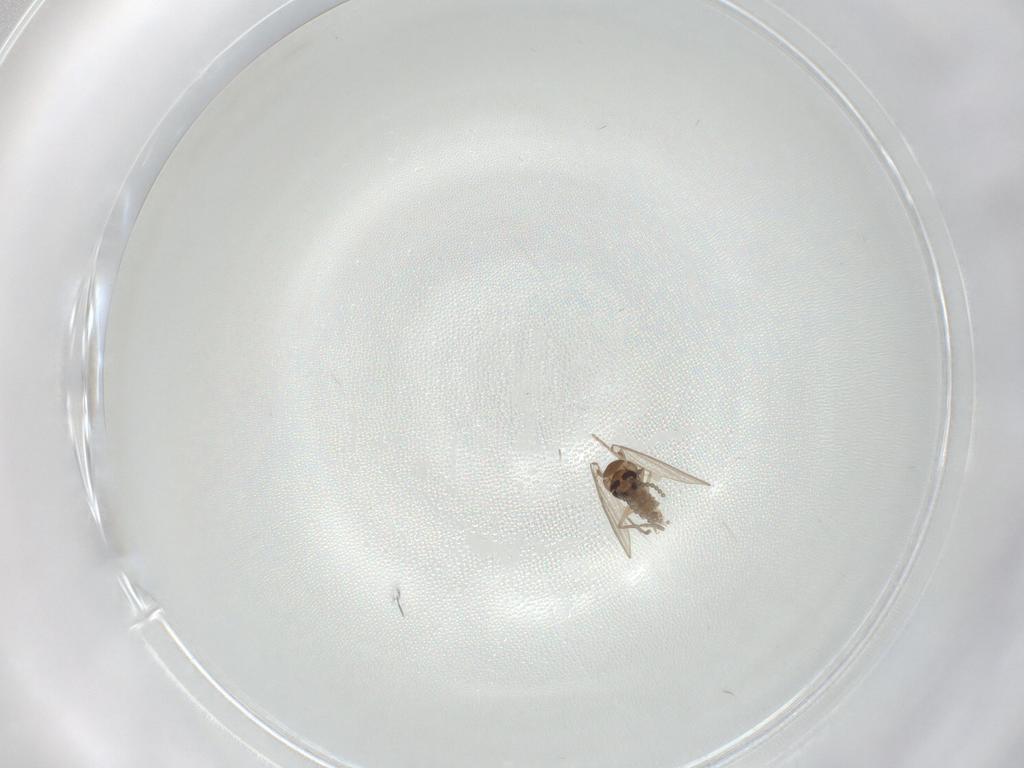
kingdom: Animalia
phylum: Arthropoda
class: Insecta
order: Diptera
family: Psychodidae
